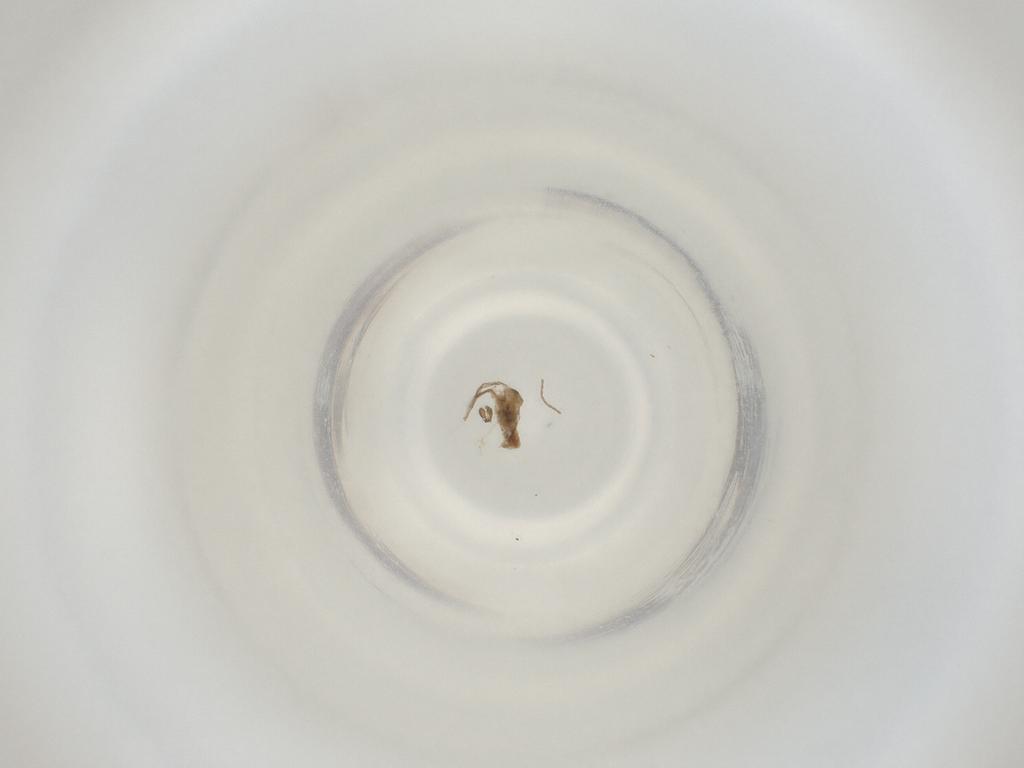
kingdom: Animalia
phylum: Arthropoda
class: Insecta
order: Diptera
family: Cecidomyiidae
